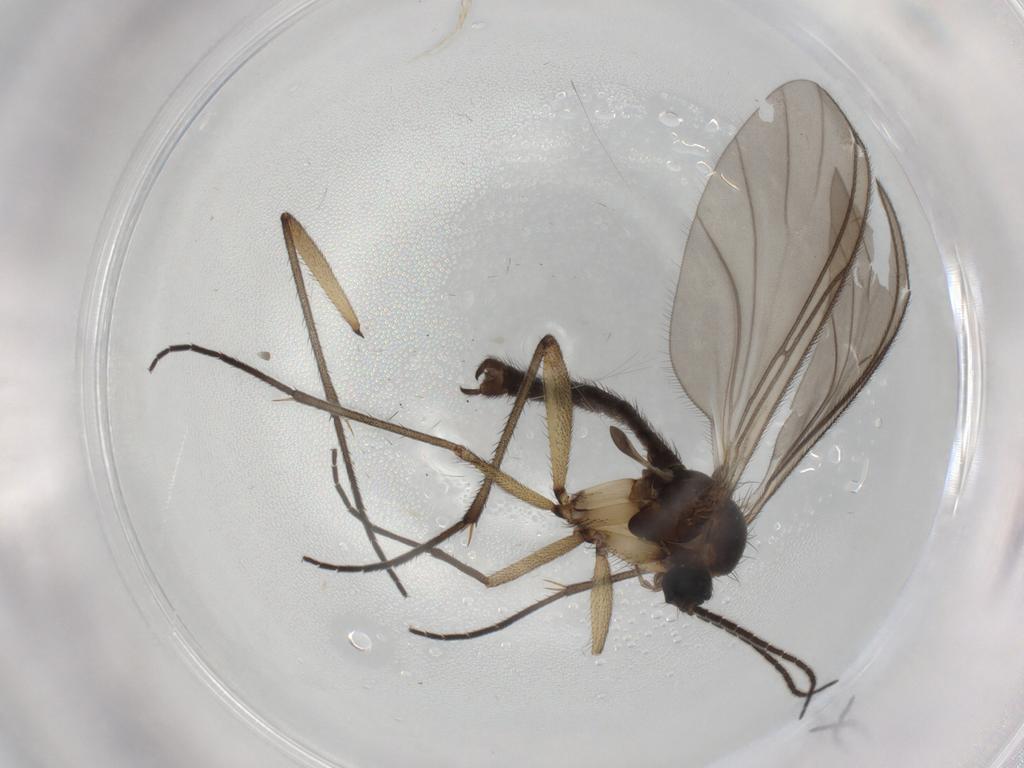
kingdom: Animalia
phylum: Arthropoda
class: Insecta
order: Diptera
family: Sciaridae
